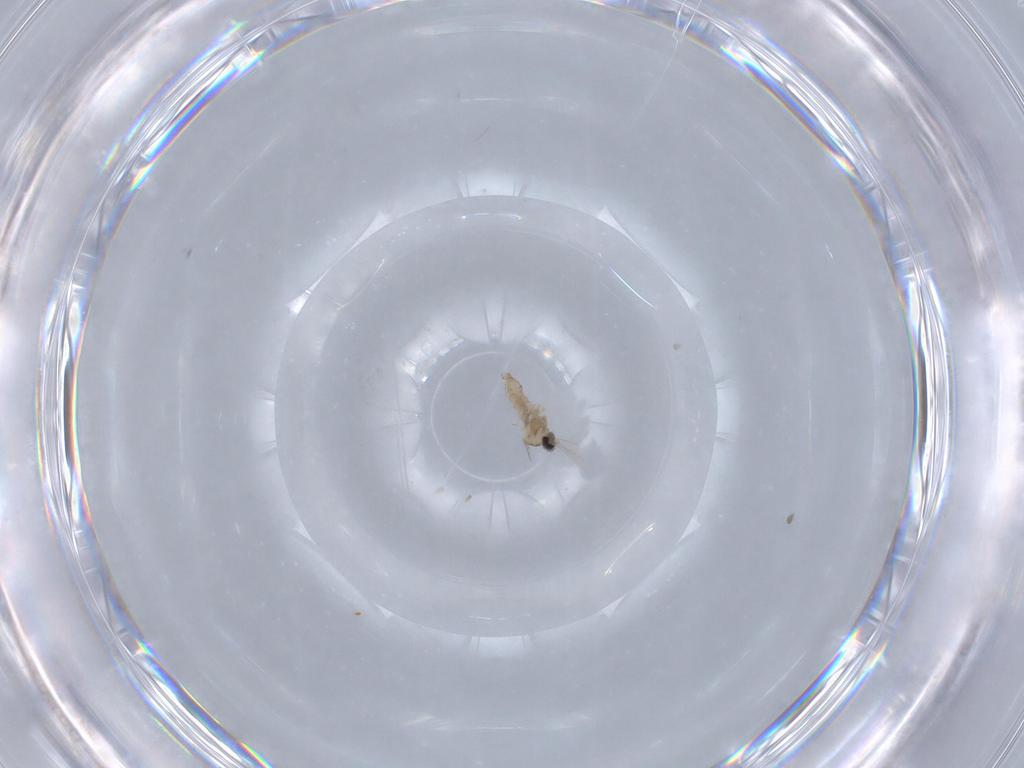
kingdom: Animalia
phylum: Arthropoda
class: Insecta
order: Diptera
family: Cecidomyiidae
